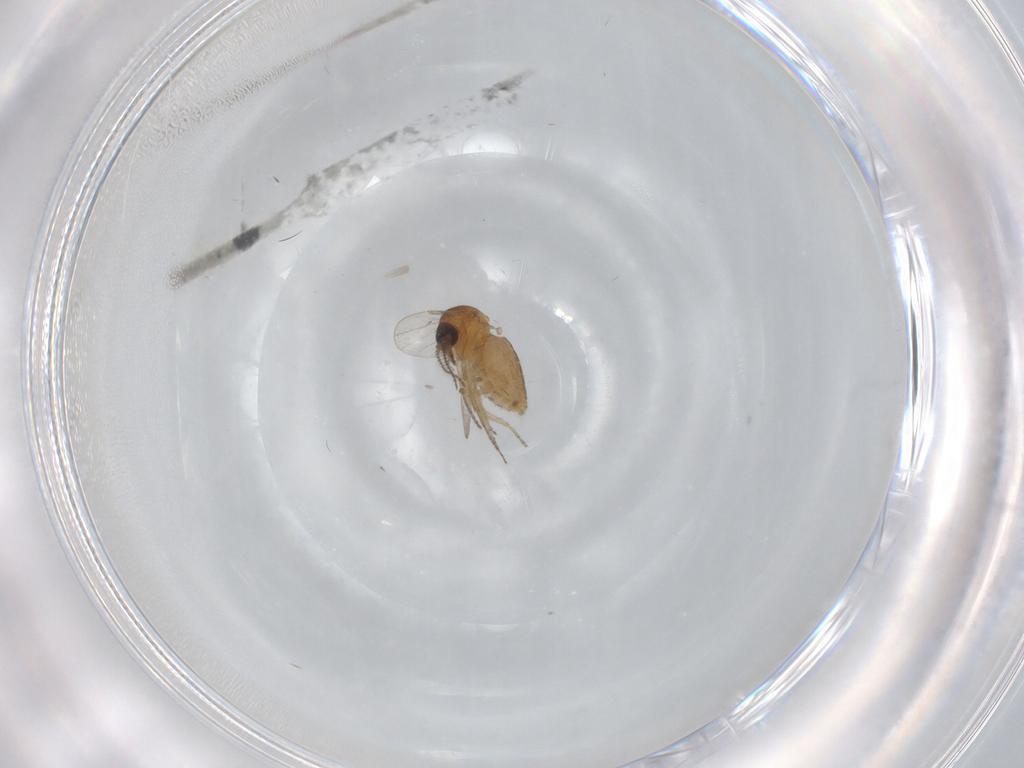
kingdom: Animalia
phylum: Arthropoda
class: Insecta
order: Diptera
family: Ceratopogonidae
